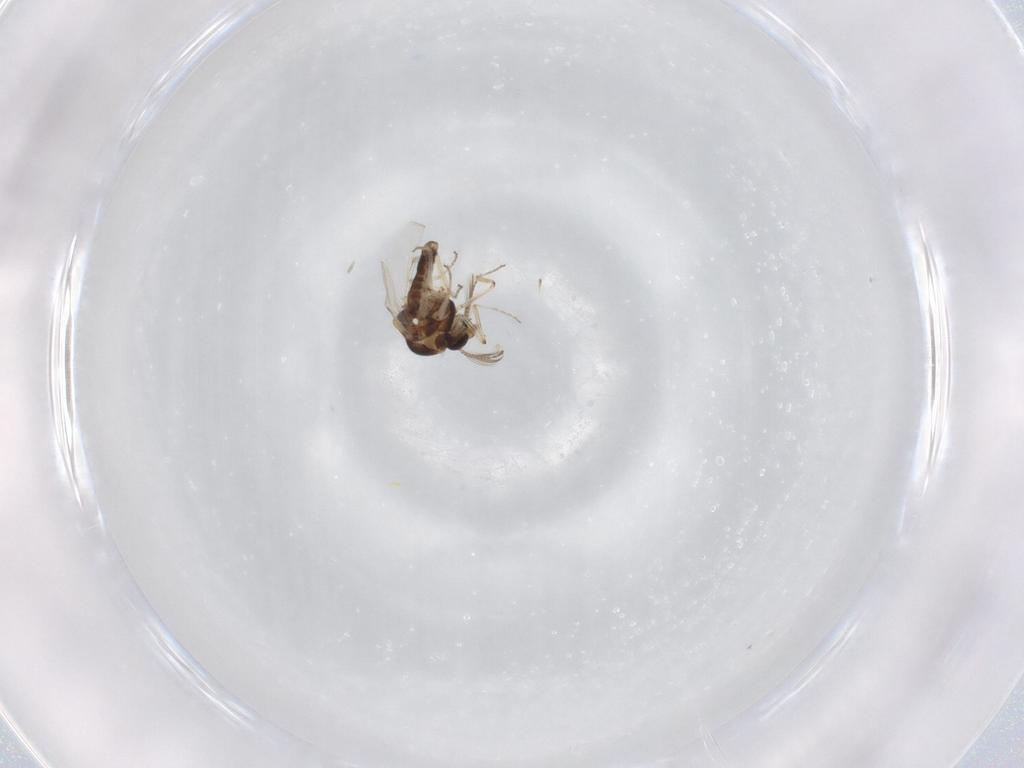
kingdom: Animalia
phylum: Arthropoda
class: Insecta
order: Diptera
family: Ceratopogonidae
